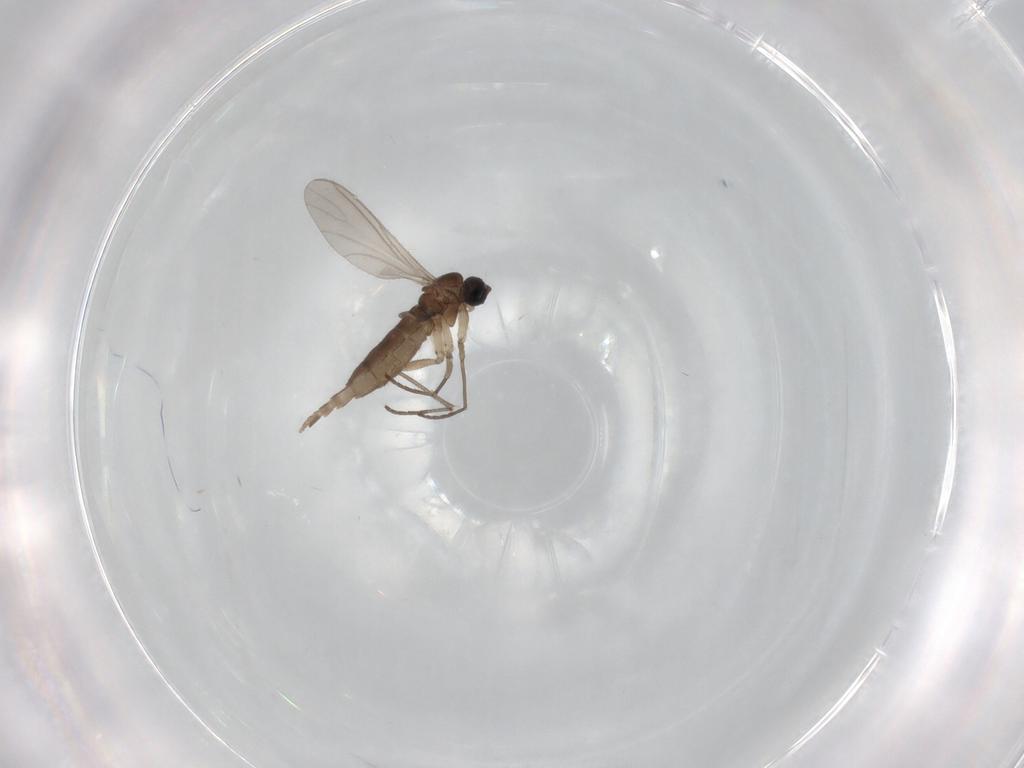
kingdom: Animalia
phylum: Arthropoda
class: Insecta
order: Diptera
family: Sciaridae
